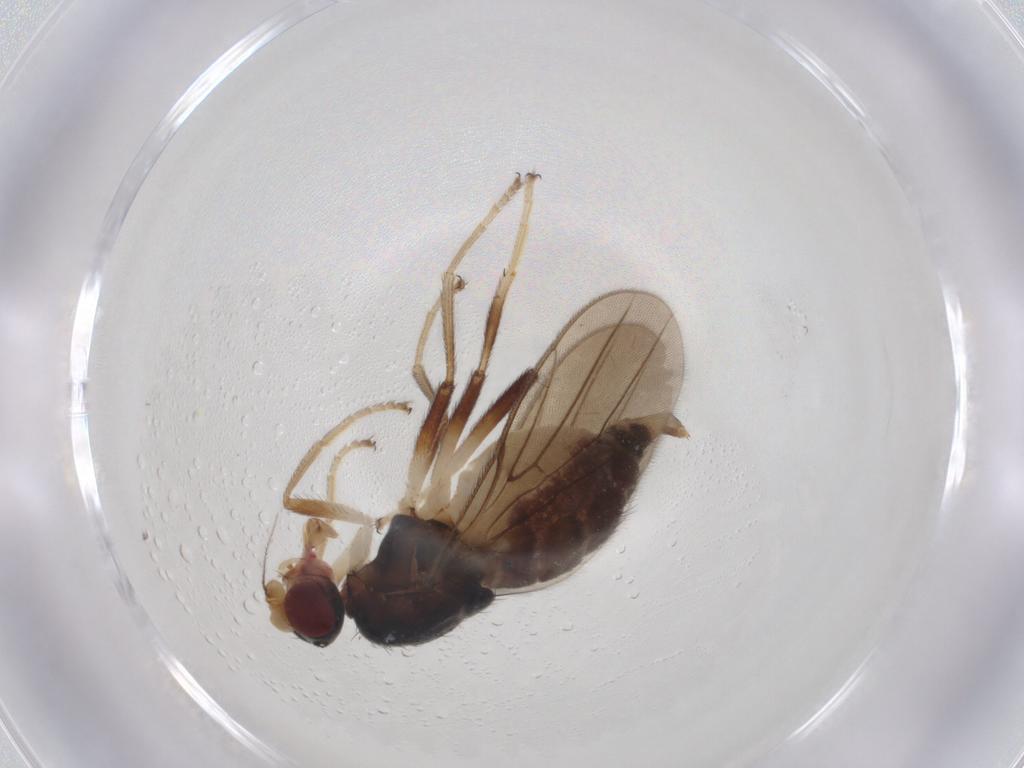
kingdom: Animalia
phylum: Arthropoda
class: Insecta
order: Diptera
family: Chloropidae
